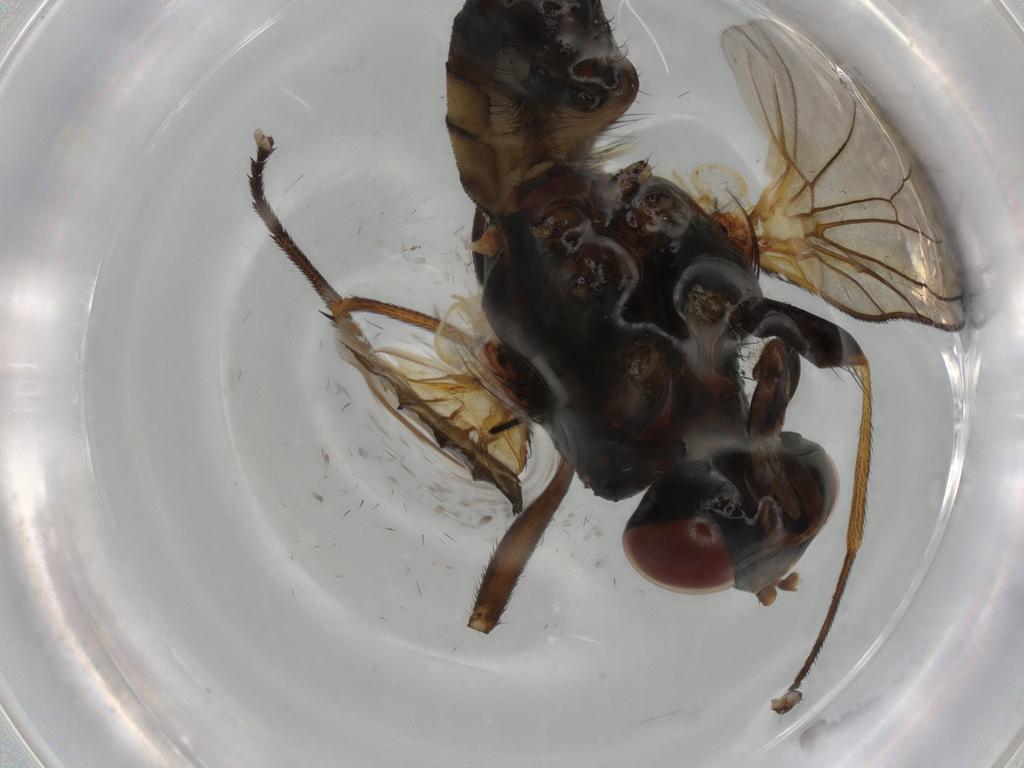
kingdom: Animalia
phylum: Arthropoda
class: Insecta
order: Diptera
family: Anthomyiidae
